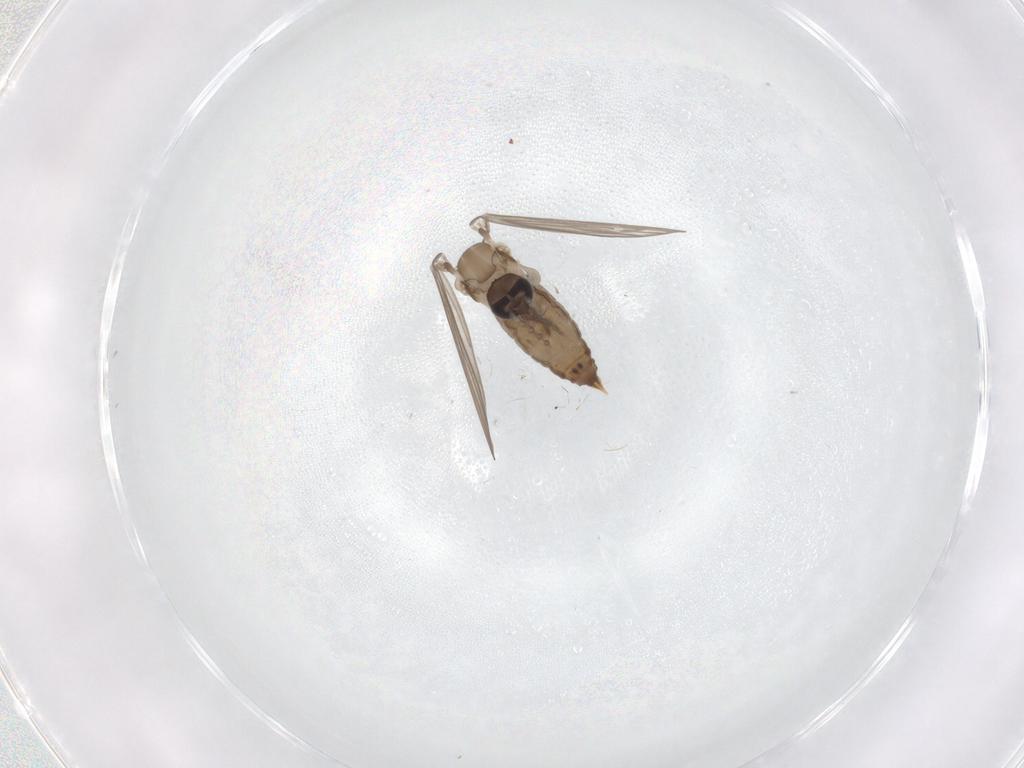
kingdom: Animalia
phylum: Arthropoda
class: Insecta
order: Diptera
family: Psychodidae
